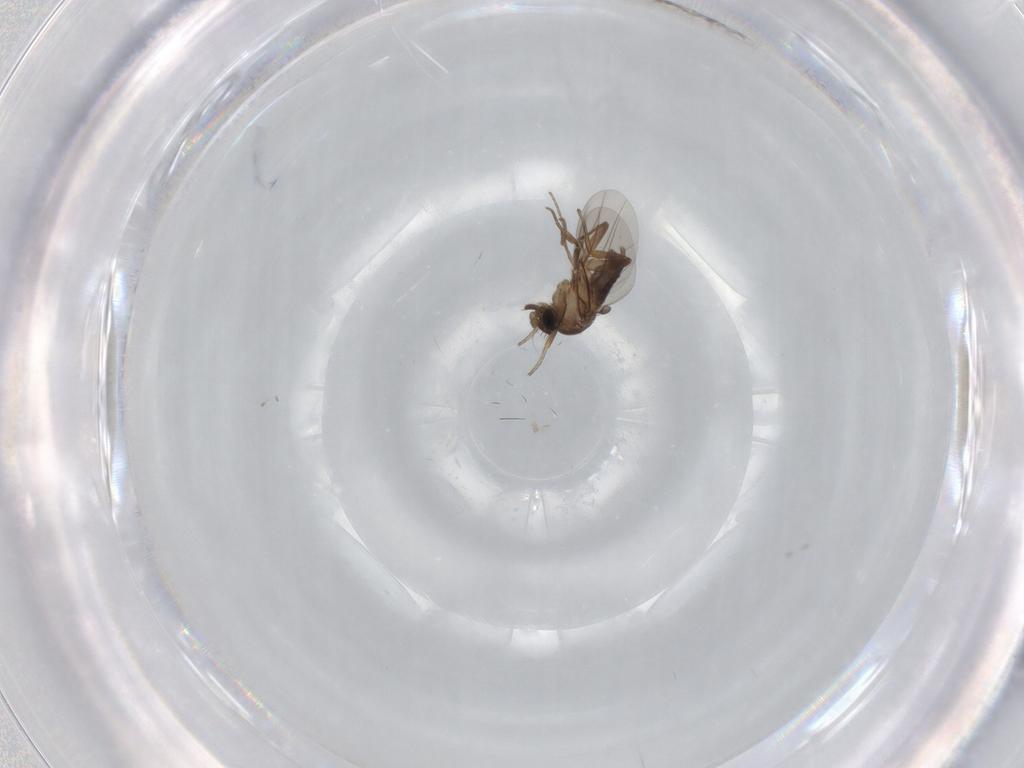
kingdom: Animalia
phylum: Arthropoda
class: Insecta
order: Diptera
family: Phoridae
